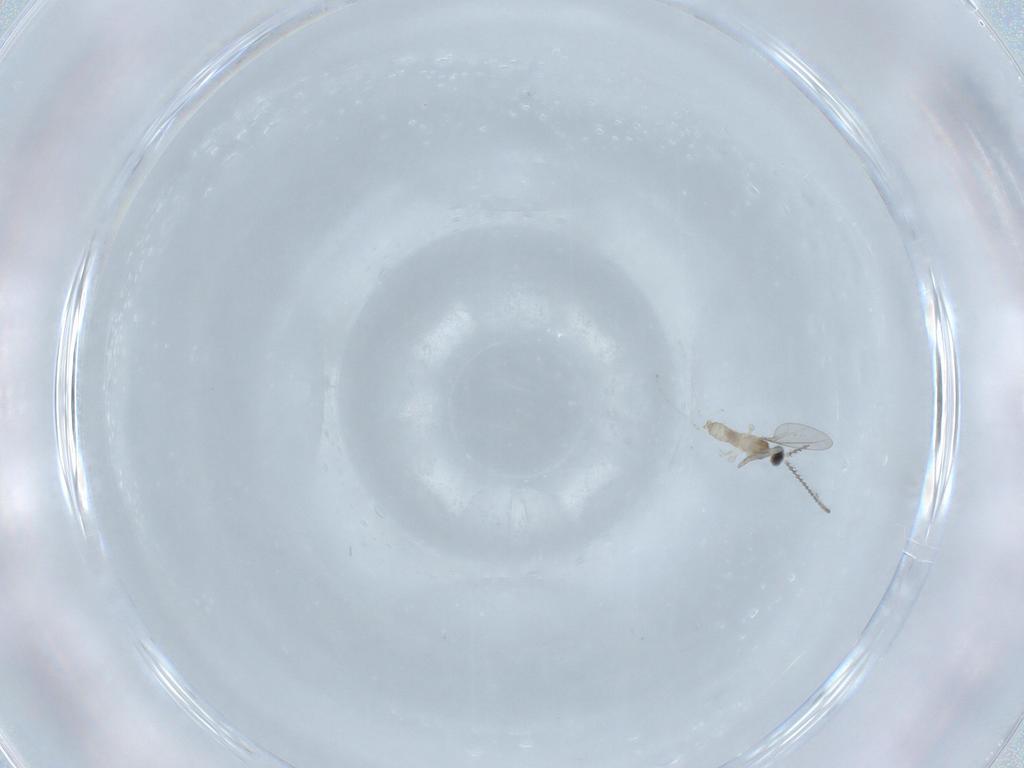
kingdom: Animalia
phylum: Arthropoda
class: Insecta
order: Diptera
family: Cecidomyiidae
